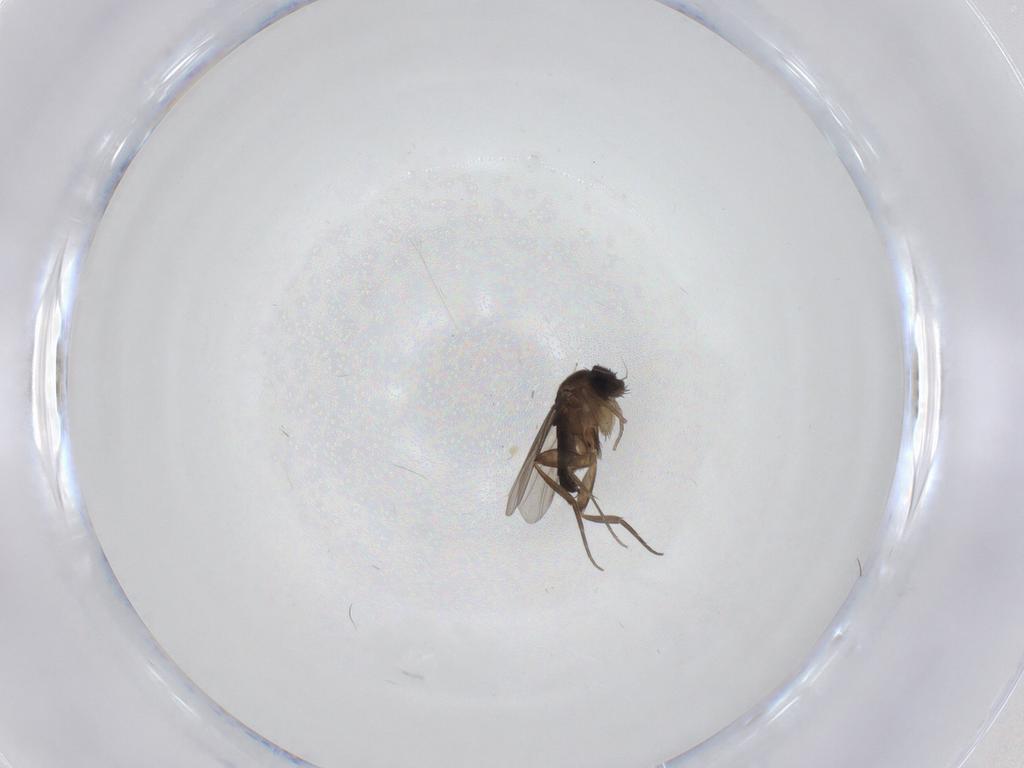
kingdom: Animalia
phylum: Arthropoda
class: Insecta
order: Diptera
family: Phoridae
